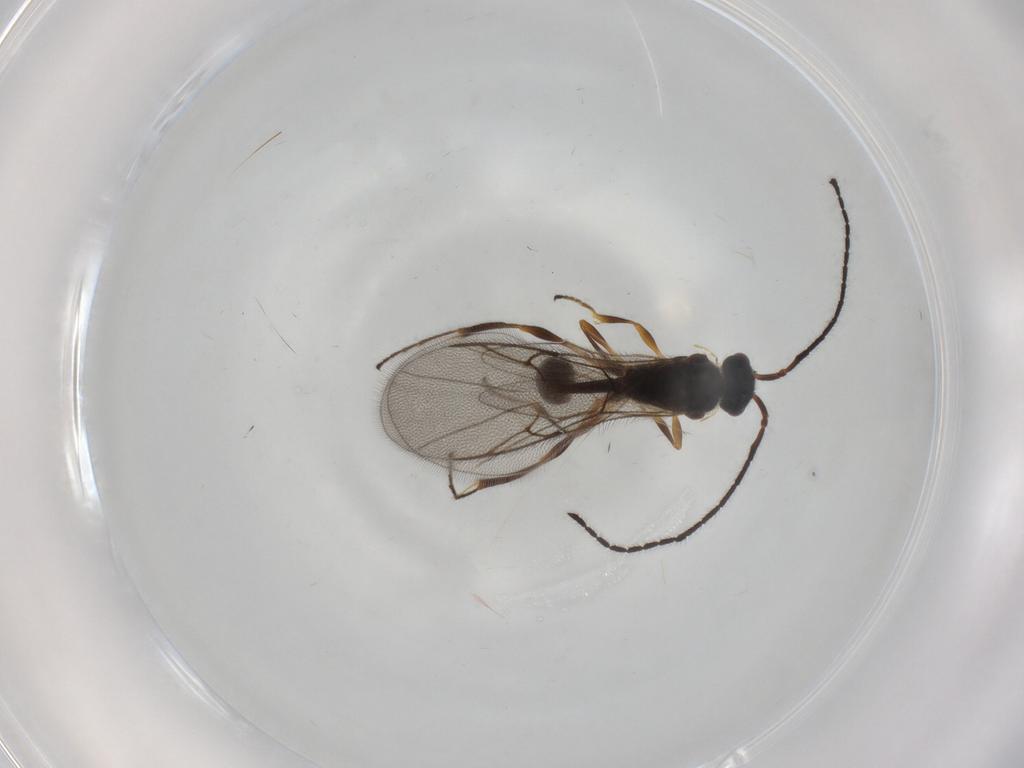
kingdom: Animalia
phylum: Arthropoda
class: Insecta
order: Hymenoptera
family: Diapriidae
